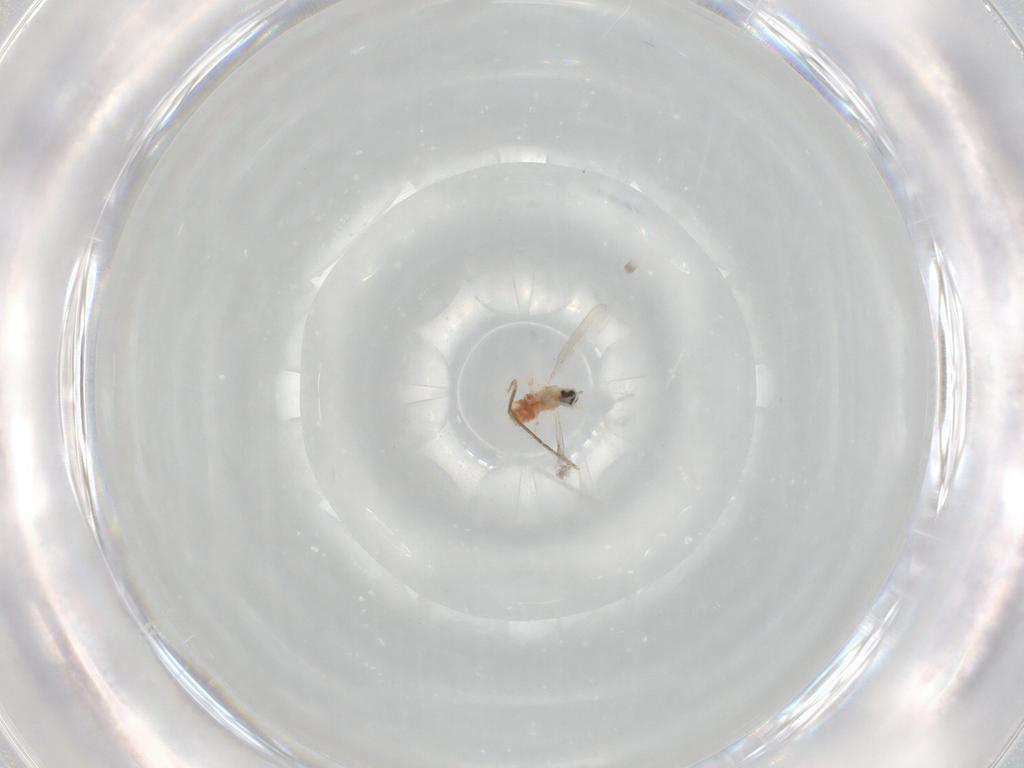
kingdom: Animalia
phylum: Arthropoda
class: Insecta
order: Diptera
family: Cecidomyiidae
